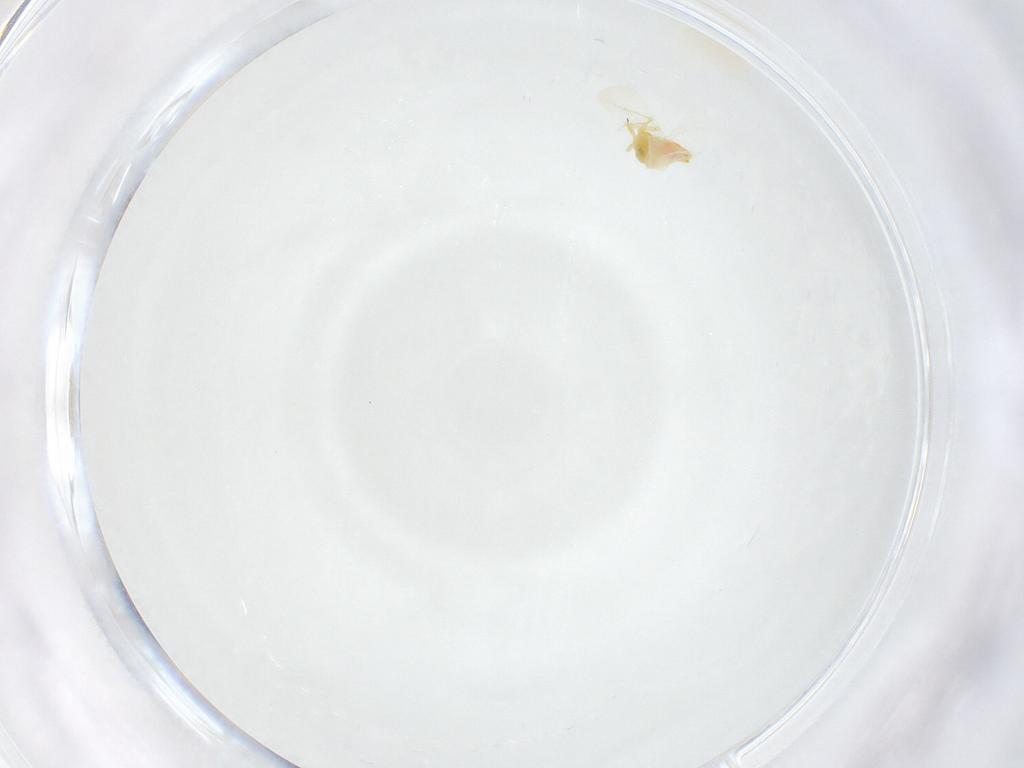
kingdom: Animalia
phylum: Arthropoda
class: Insecta
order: Hemiptera
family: Aleyrodidae
